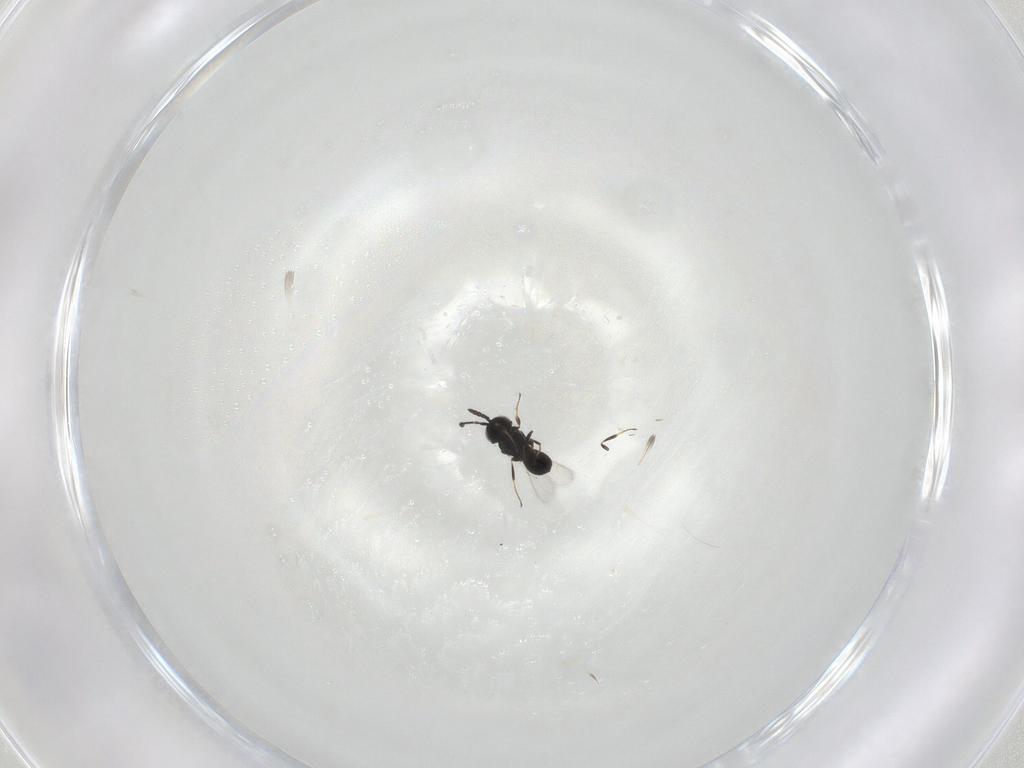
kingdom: Animalia
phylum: Arthropoda
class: Insecta
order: Hymenoptera
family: Scelionidae
